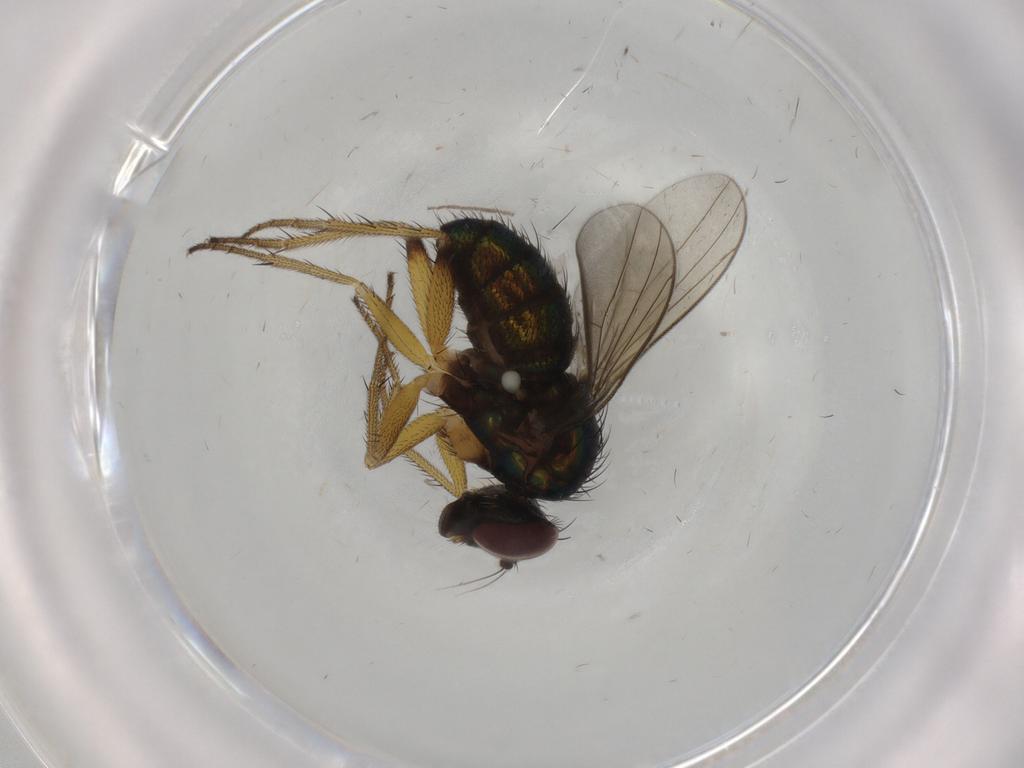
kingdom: Animalia
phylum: Arthropoda
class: Insecta
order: Diptera
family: Dolichopodidae
